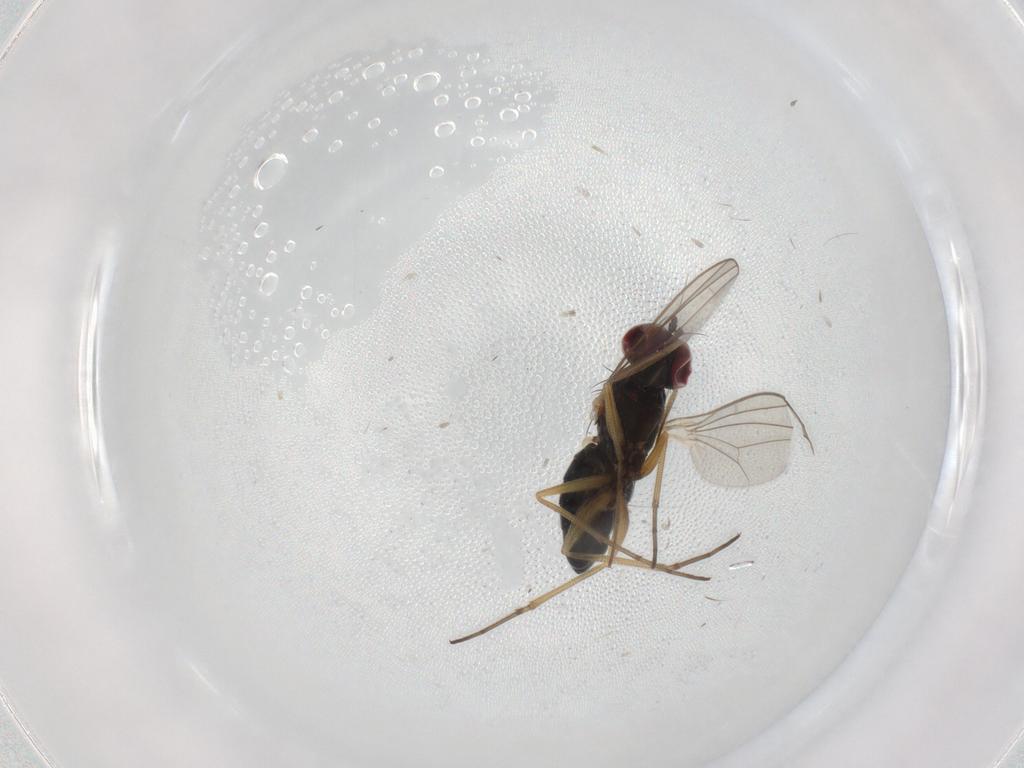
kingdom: Animalia
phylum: Arthropoda
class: Insecta
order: Diptera
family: Dolichopodidae
